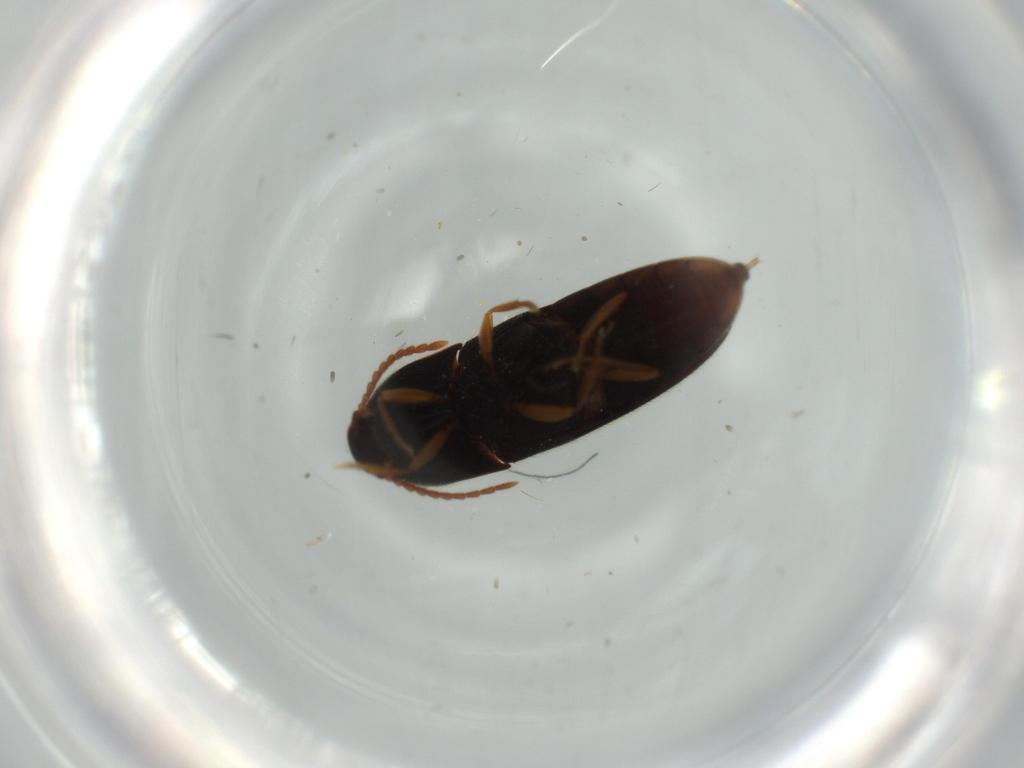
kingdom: Animalia
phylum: Arthropoda
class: Insecta
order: Coleoptera
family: Elateridae
